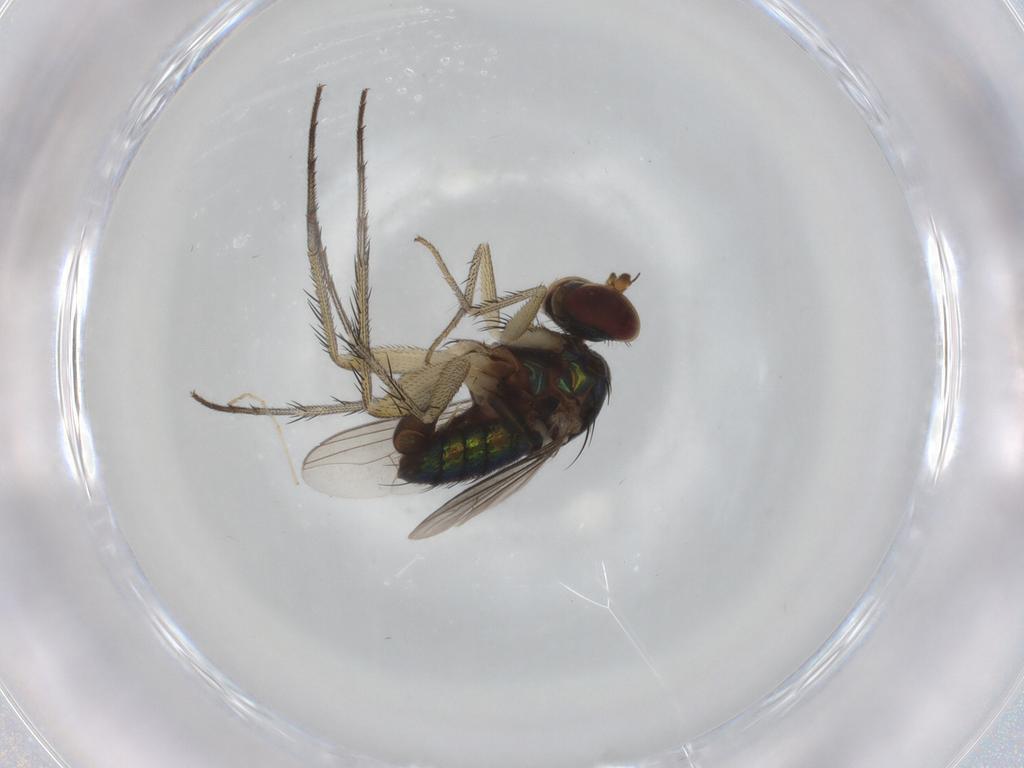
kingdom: Animalia
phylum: Arthropoda
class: Insecta
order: Diptera
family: Dolichopodidae
